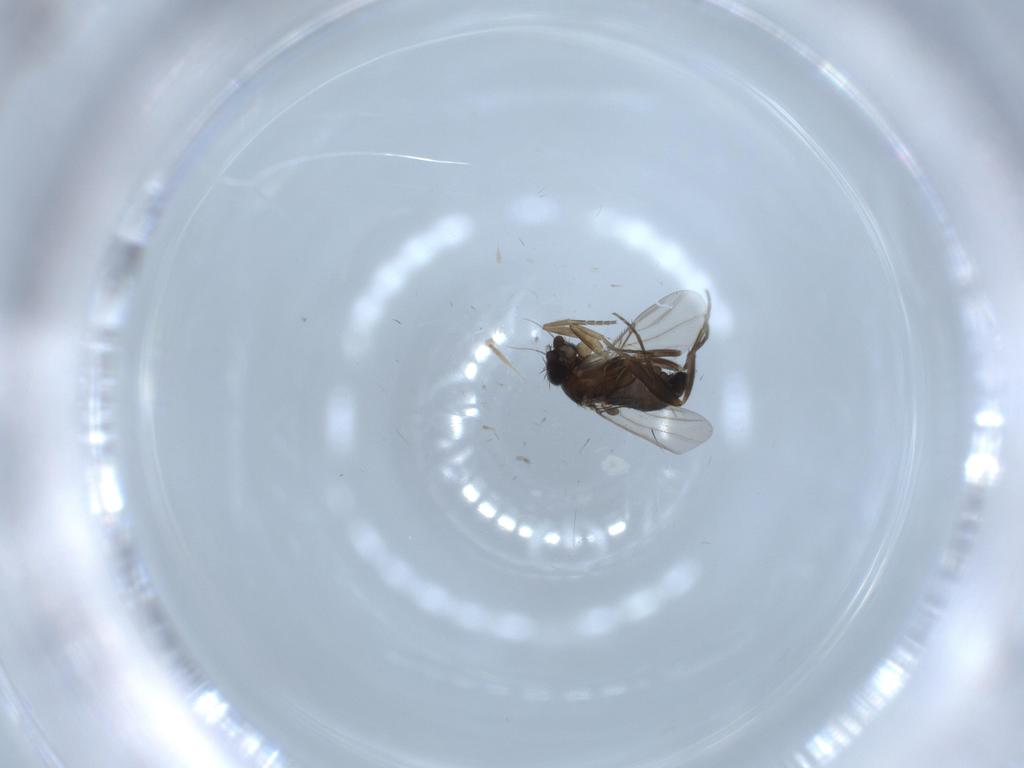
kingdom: Animalia
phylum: Arthropoda
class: Insecta
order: Diptera
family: Phoridae
